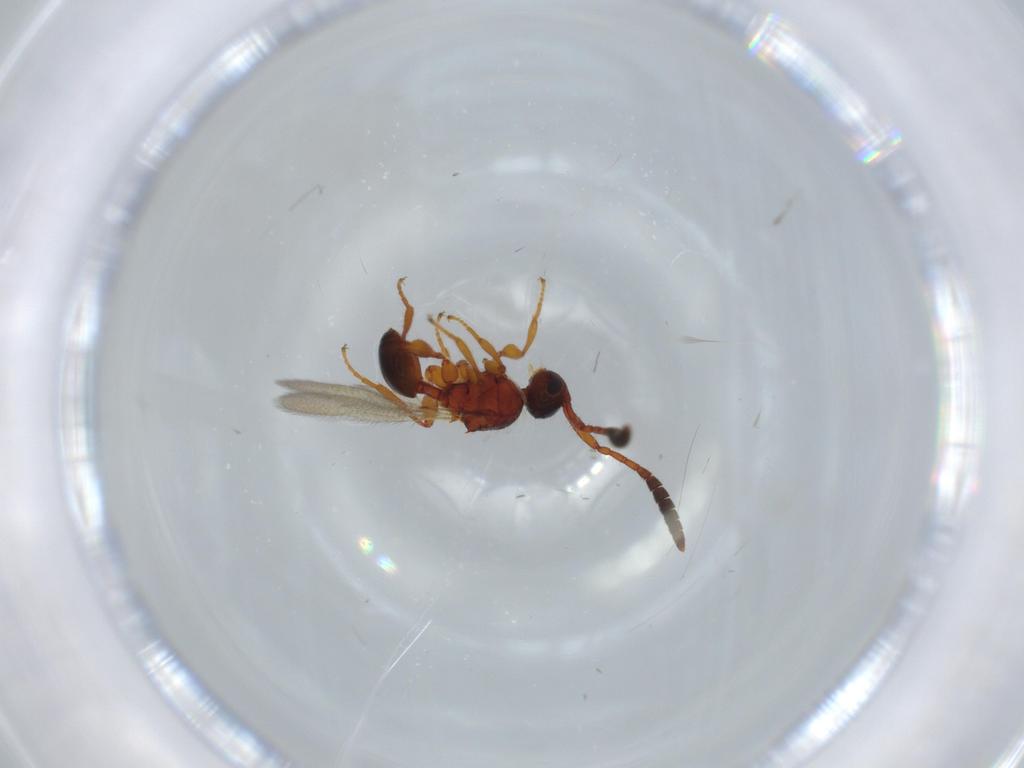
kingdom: Animalia
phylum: Arthropoda
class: Insecta
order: Hymenoptera
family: Diapriidae
